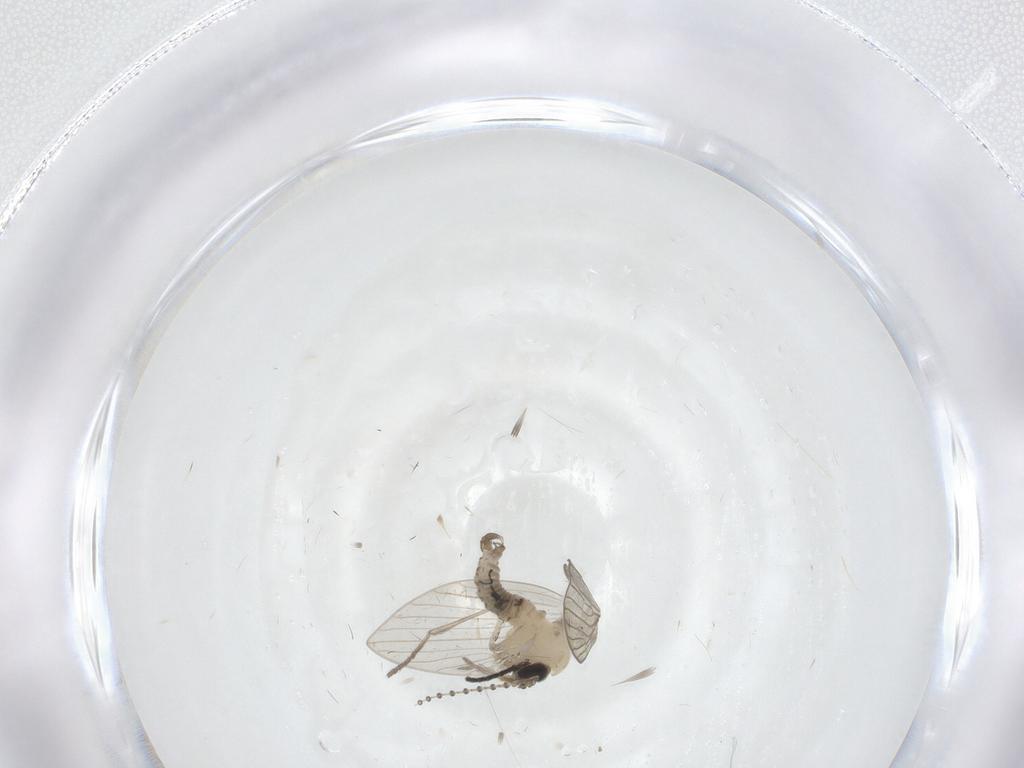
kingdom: Animalia
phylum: Arthropoda
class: Insecta
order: Diptera
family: Psychodidae
